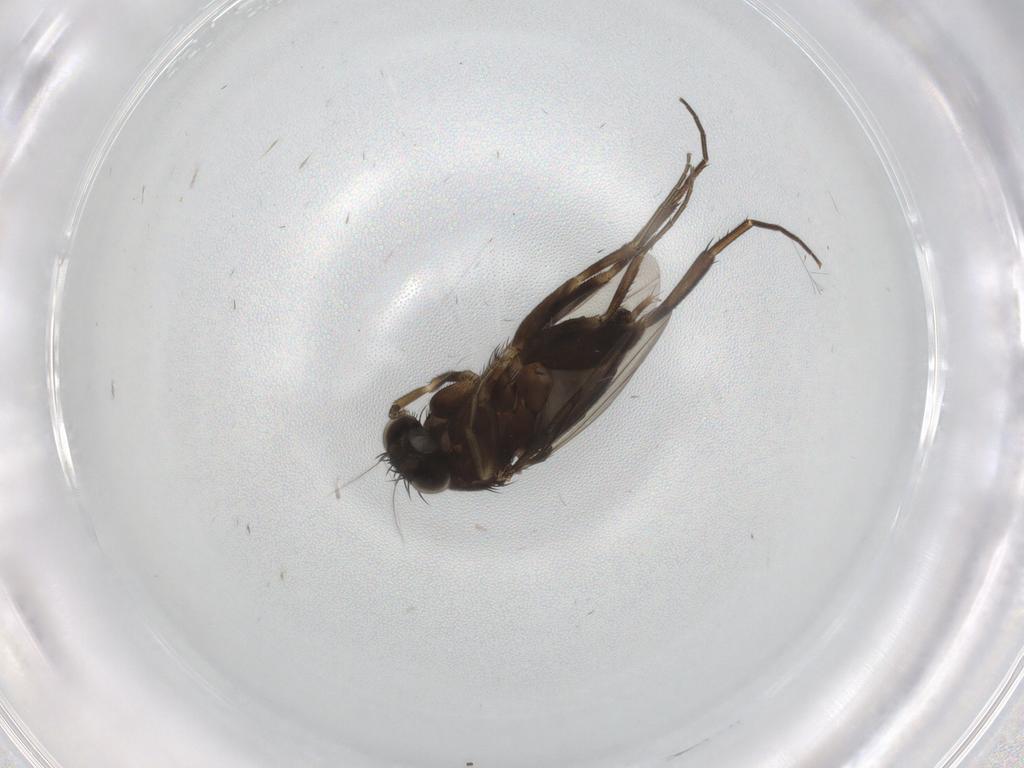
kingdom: Animalia
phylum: Arthropoda
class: Insecta
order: Diptera
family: Phoridae
